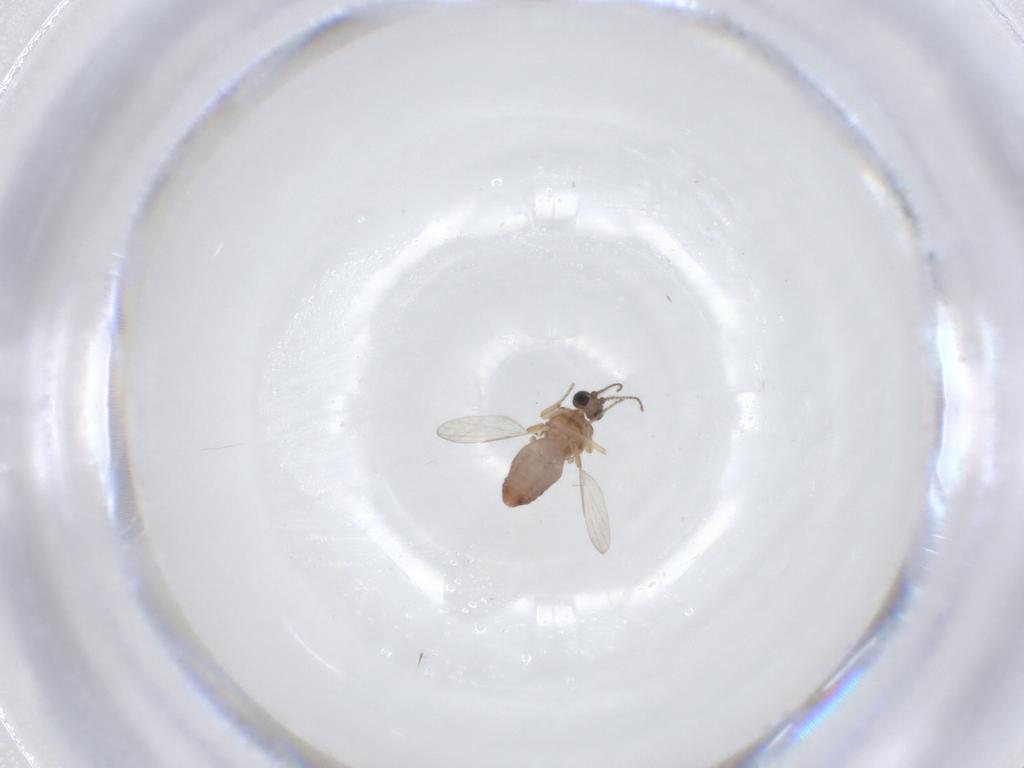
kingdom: Animalia
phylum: Arthropoda
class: Insecta
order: Diptera
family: Ceratopogonidae
